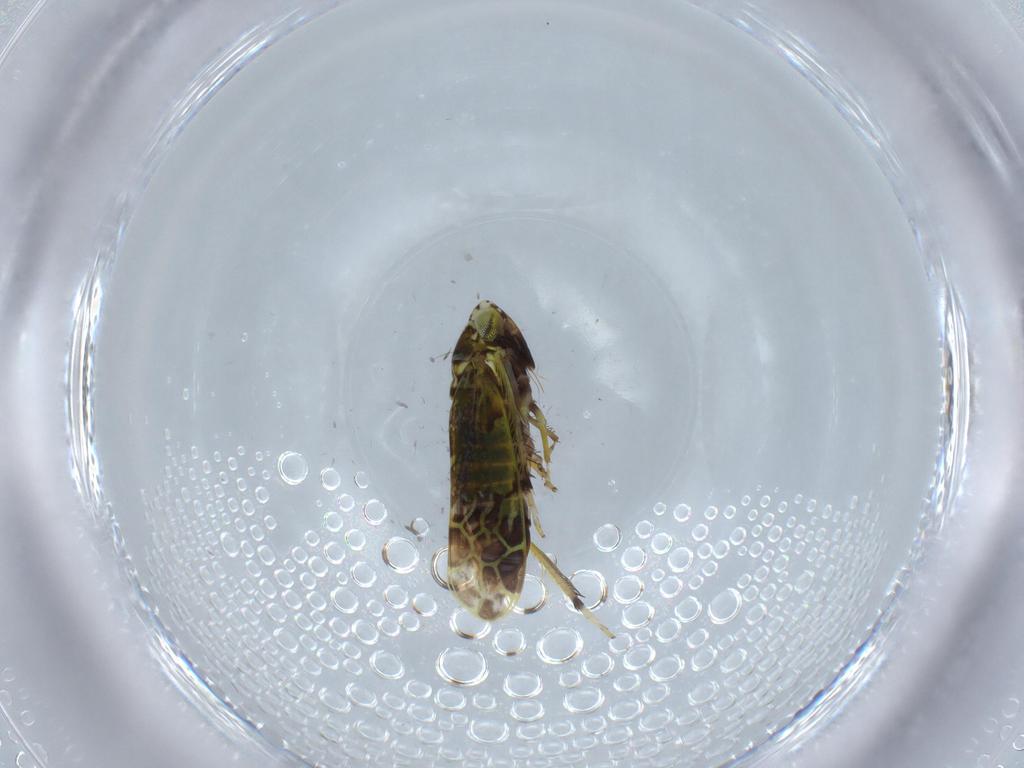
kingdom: Animalia
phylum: Arthropoda
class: Insecta
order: Hemiptera
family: Cicadellidae
